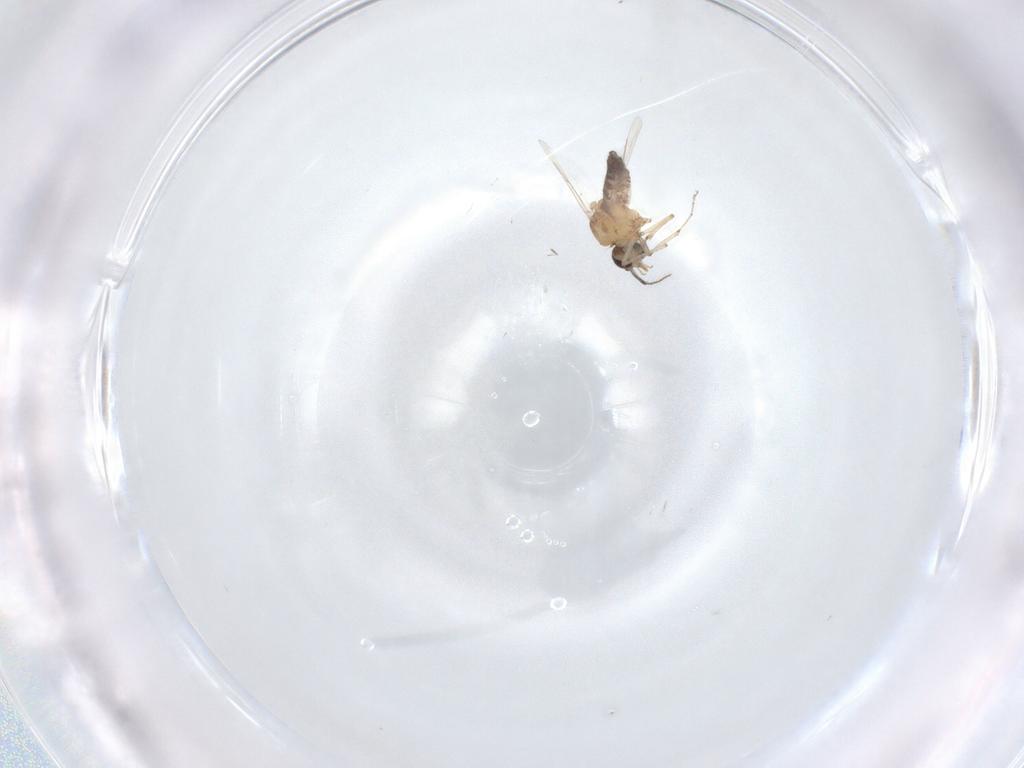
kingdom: Animalia
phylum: Arthropoda
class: Insecta
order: Diptera
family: Ceratopogonidae
